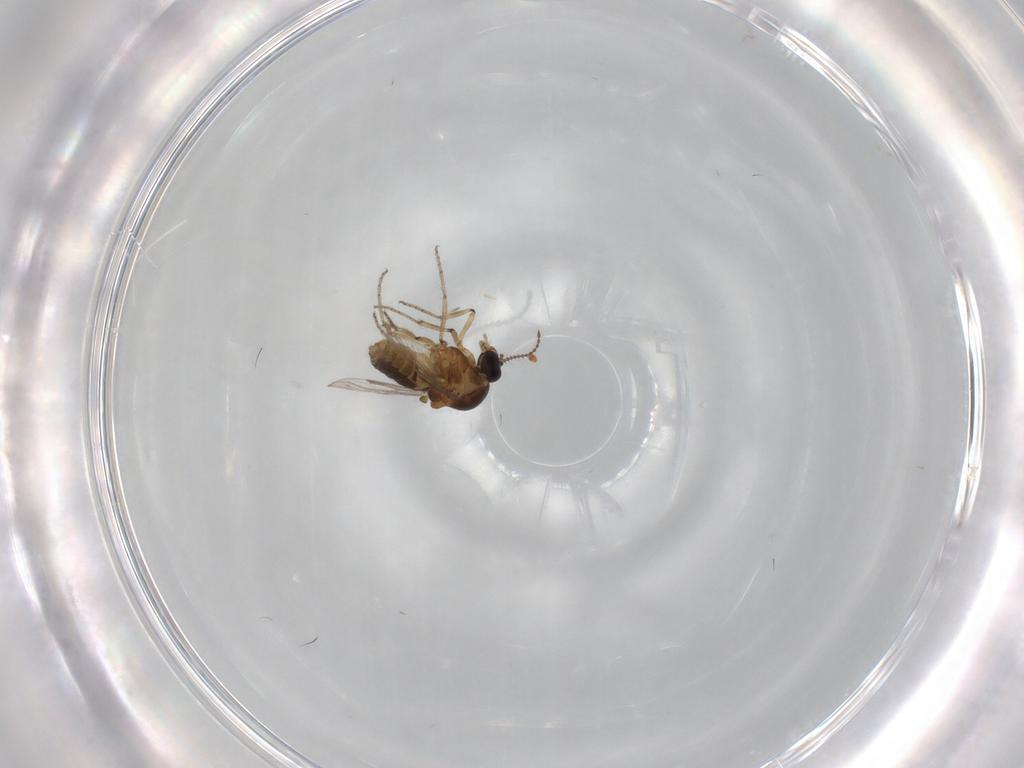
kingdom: Animalia
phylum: Arthropoda
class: Insecta
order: Diptera
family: Ceratopogonidae
